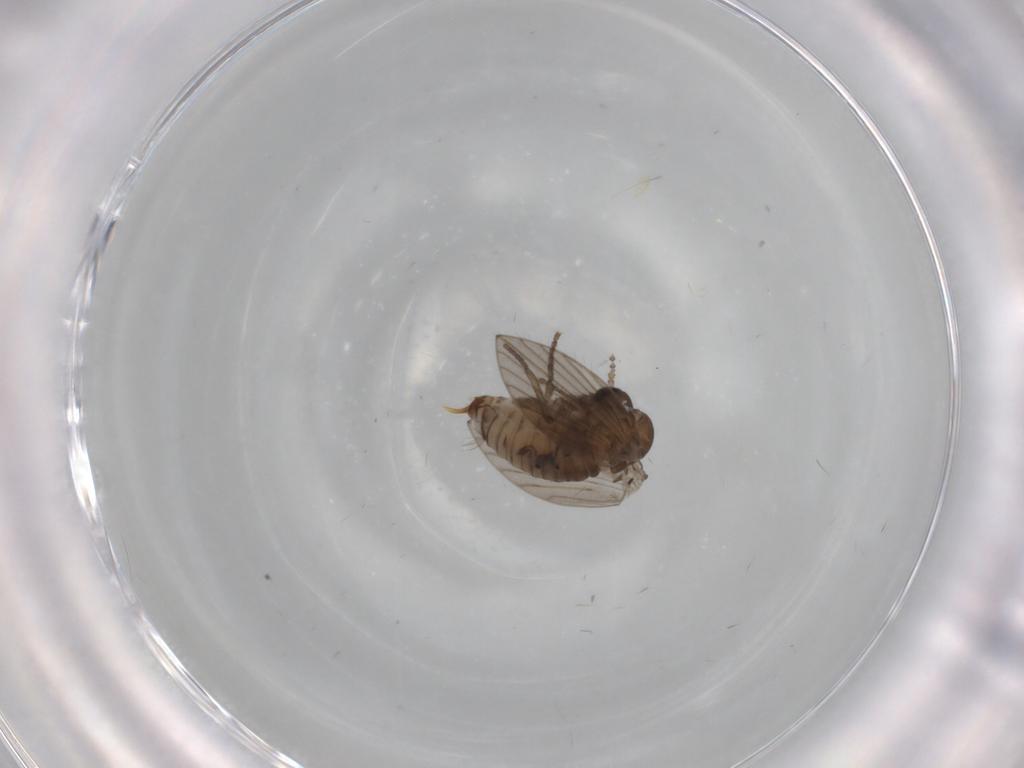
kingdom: Animalia
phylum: Arthropoda
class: Insecta
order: Diptera
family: Psychodidae
